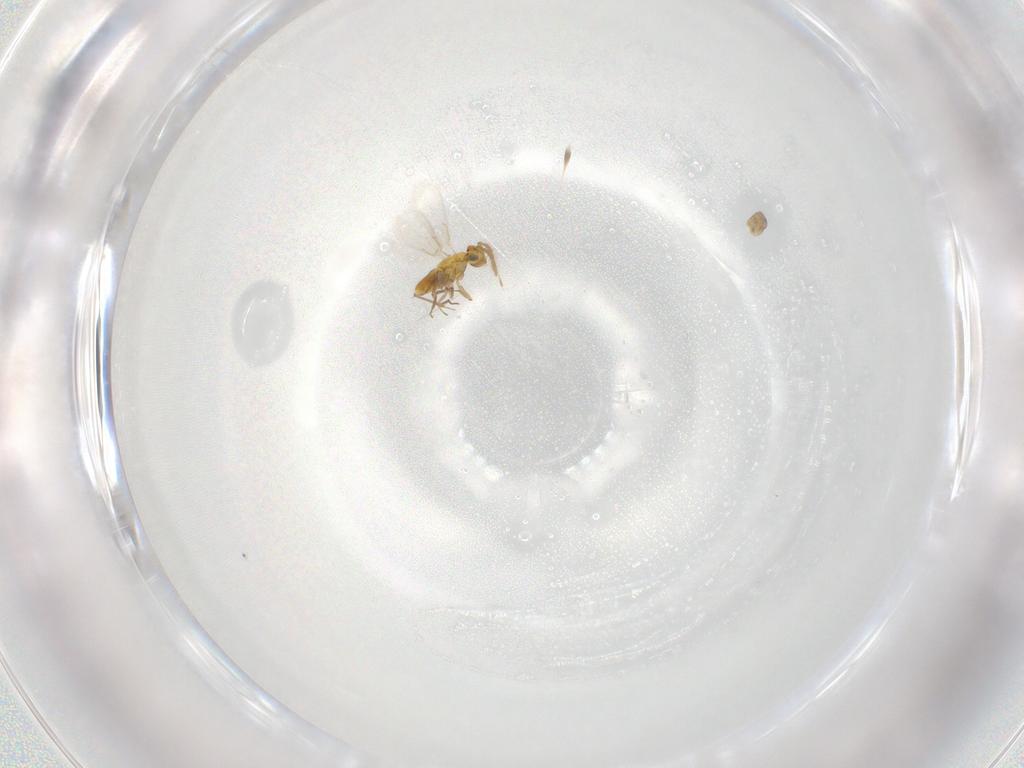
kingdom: Animalia
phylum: Arthropoda
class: Insecta
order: Hymenoptera
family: Aphelinidae
